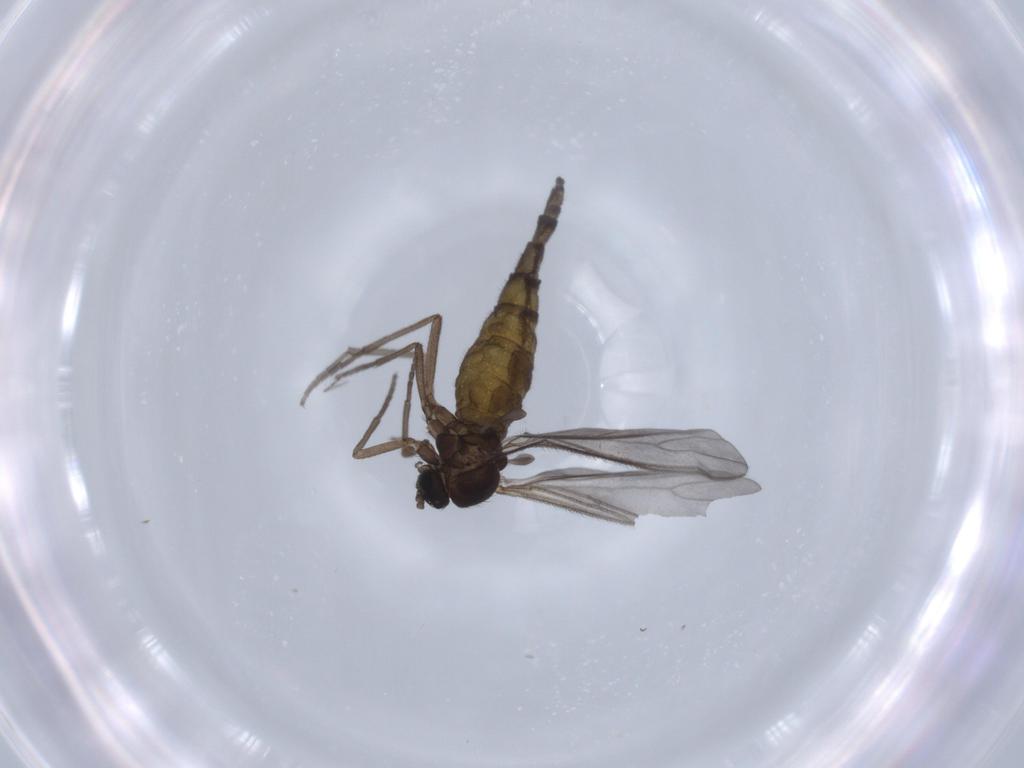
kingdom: Animalia
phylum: Arthropoda
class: Insecta
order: Diptera
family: Sciaridae
